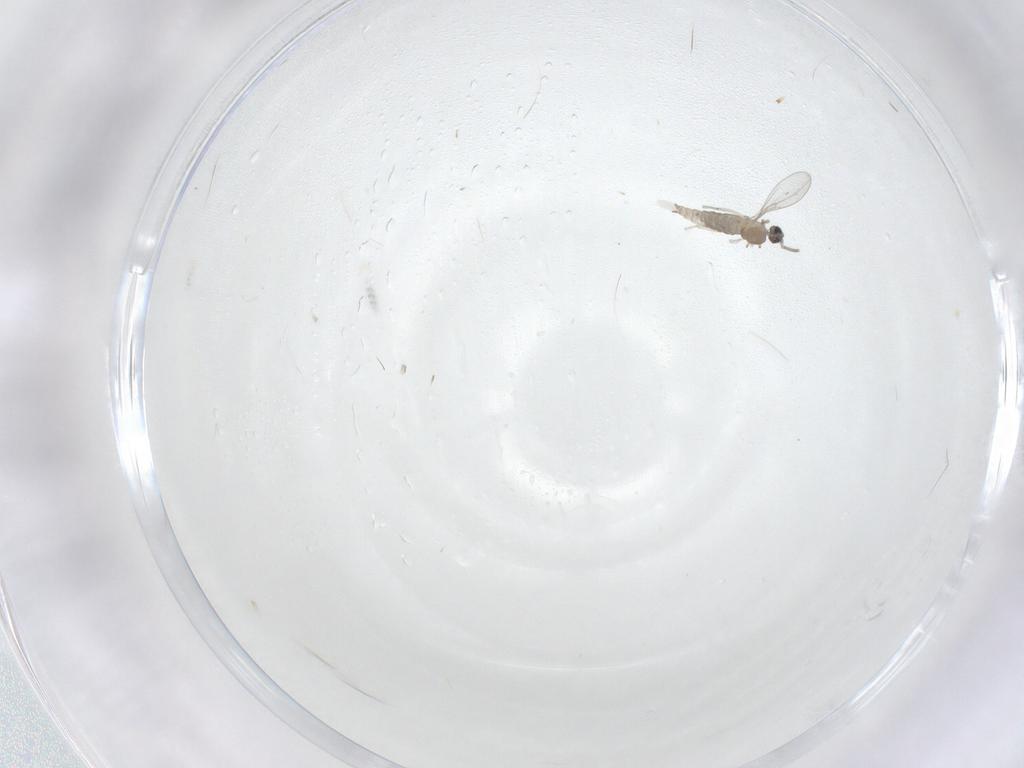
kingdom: Animalia
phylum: Arthropoda
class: Insecta
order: Diptera
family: Cecidomyiidae
